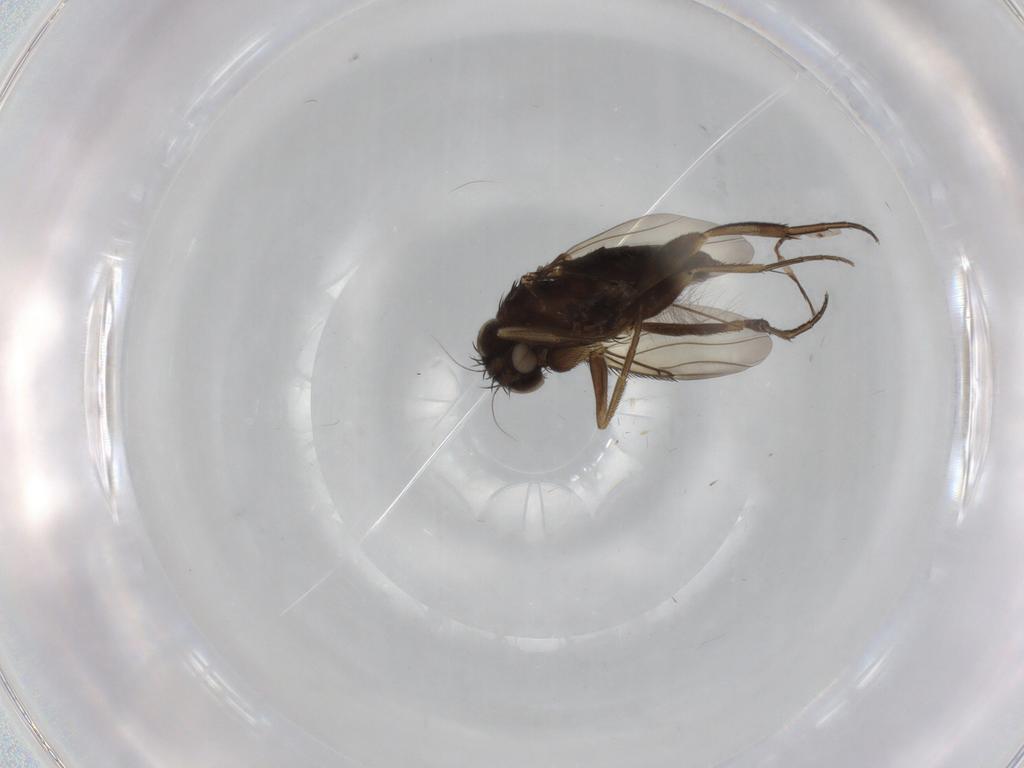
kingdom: Animalia
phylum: Arthropoda
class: Insecta
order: Diptera
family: Phoridae
